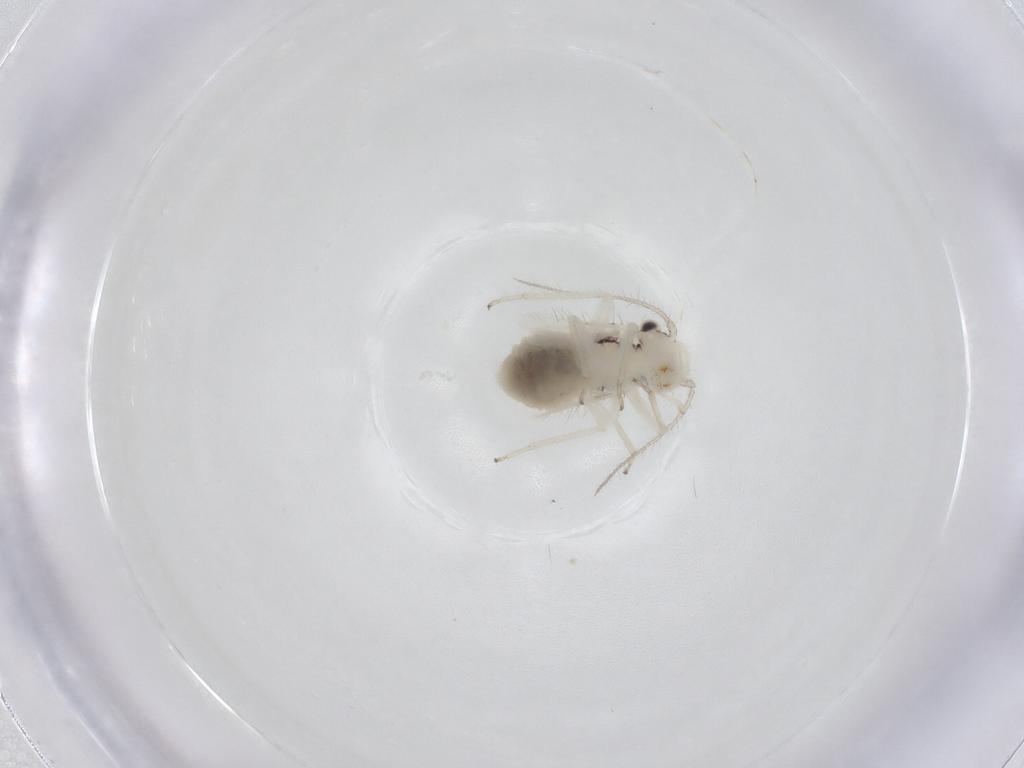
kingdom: Animalia
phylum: Arthropoda
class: Insecta
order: Psocodea
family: Caeciliusidae
